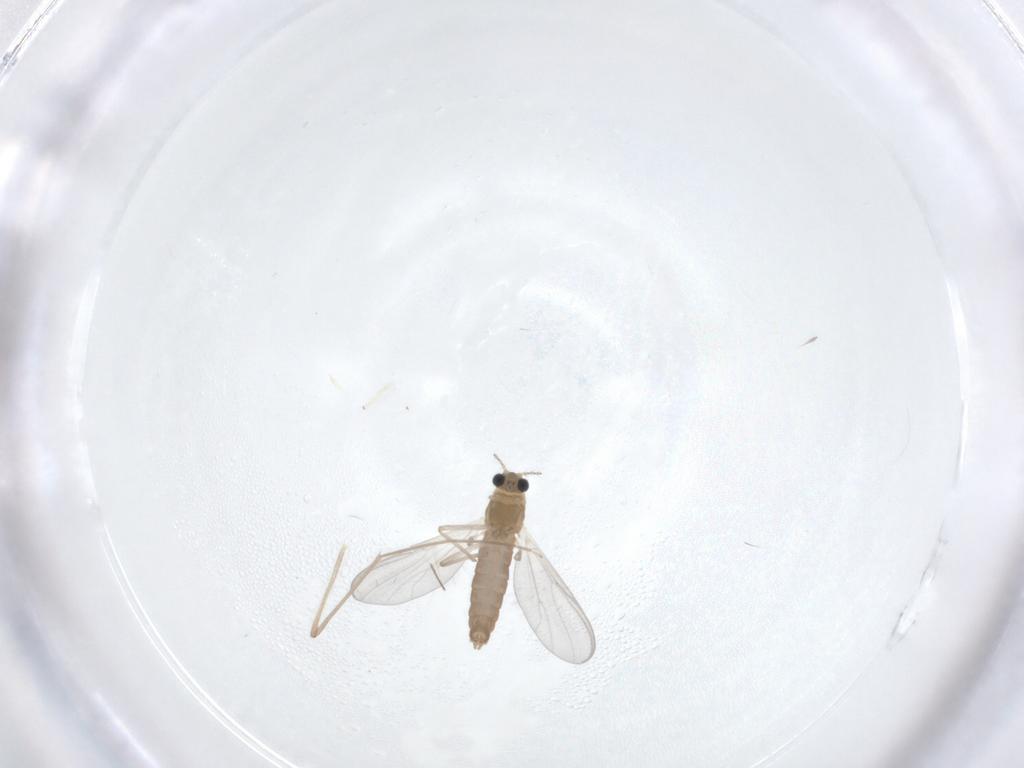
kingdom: Animalia
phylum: Arthropoda
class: Insecta
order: Diptera
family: Chironomidae
